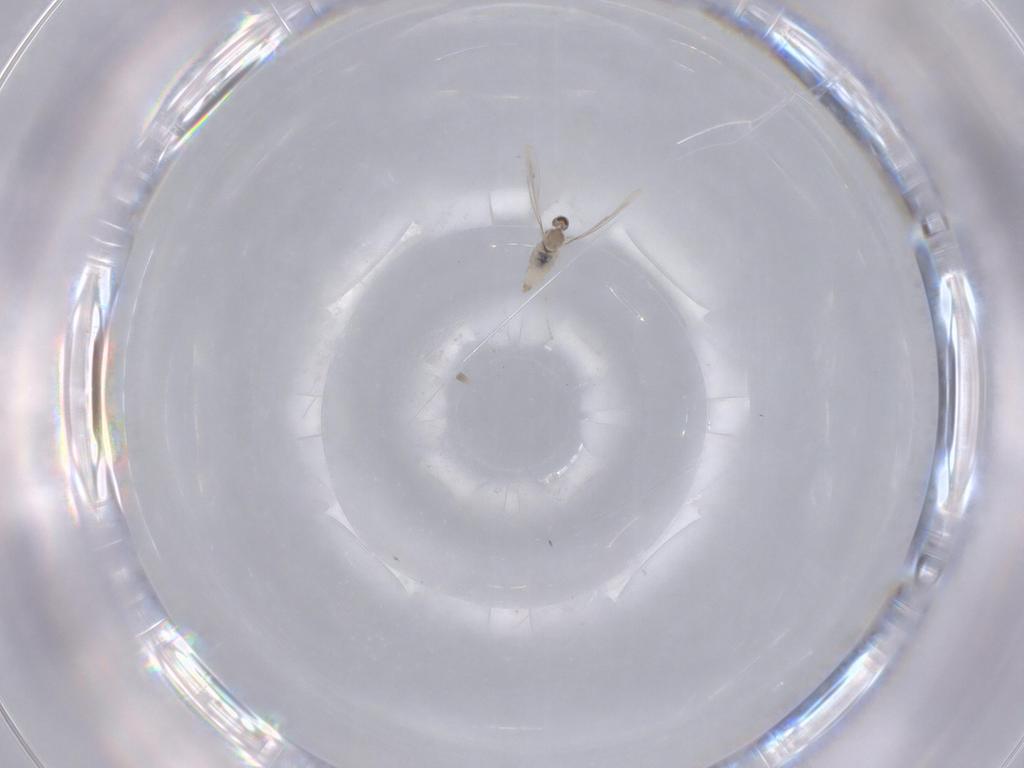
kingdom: Animalia
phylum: Arthropoda
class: Insecta
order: Diptera
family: Cecidomyiidae
